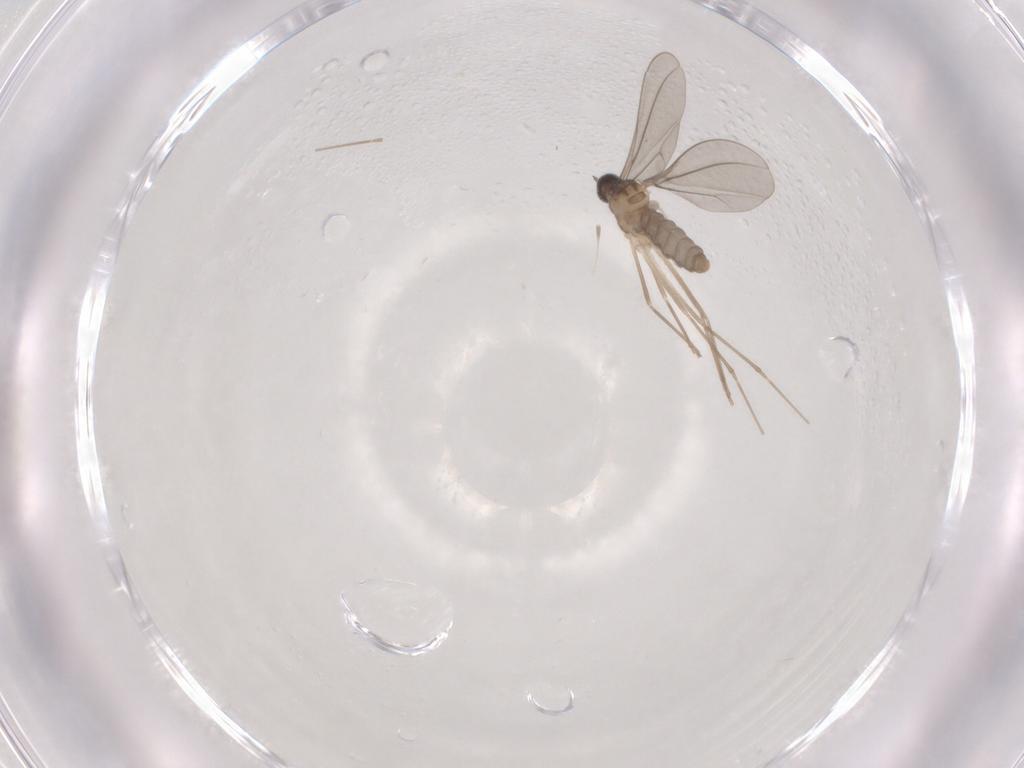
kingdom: Animalia
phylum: Arthropoda
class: Insecta
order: Diptera
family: Cecidomyiidae
